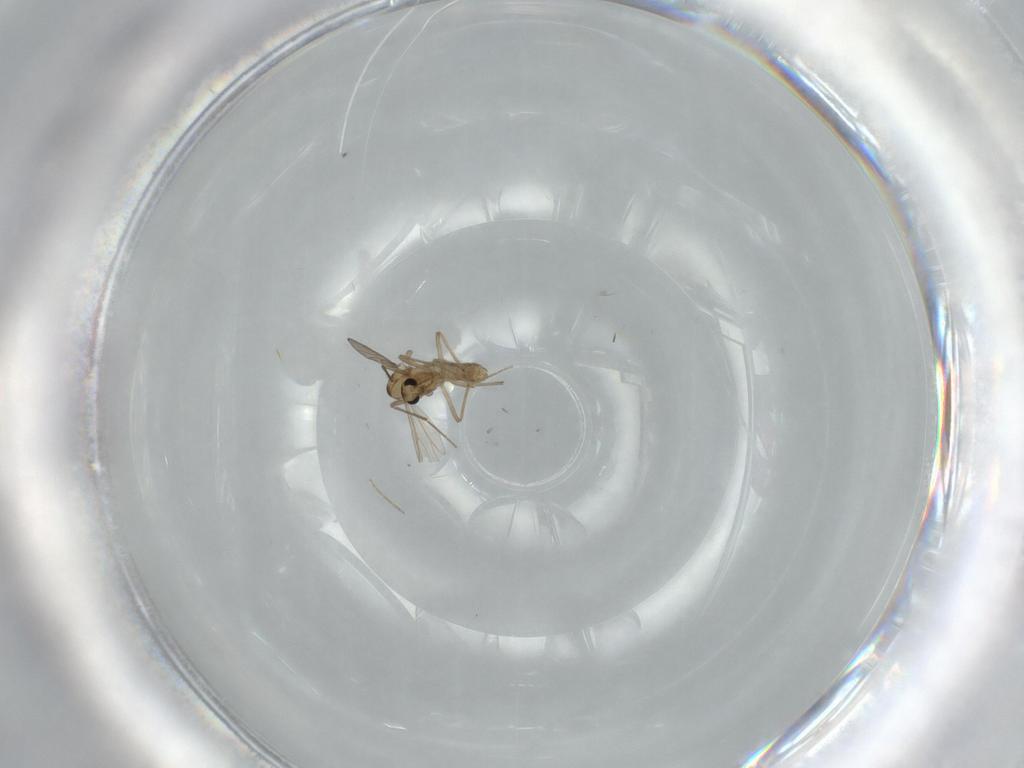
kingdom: Animalia
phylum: Arthropoda
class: Insecta
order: Diptera
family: Chironomidae
